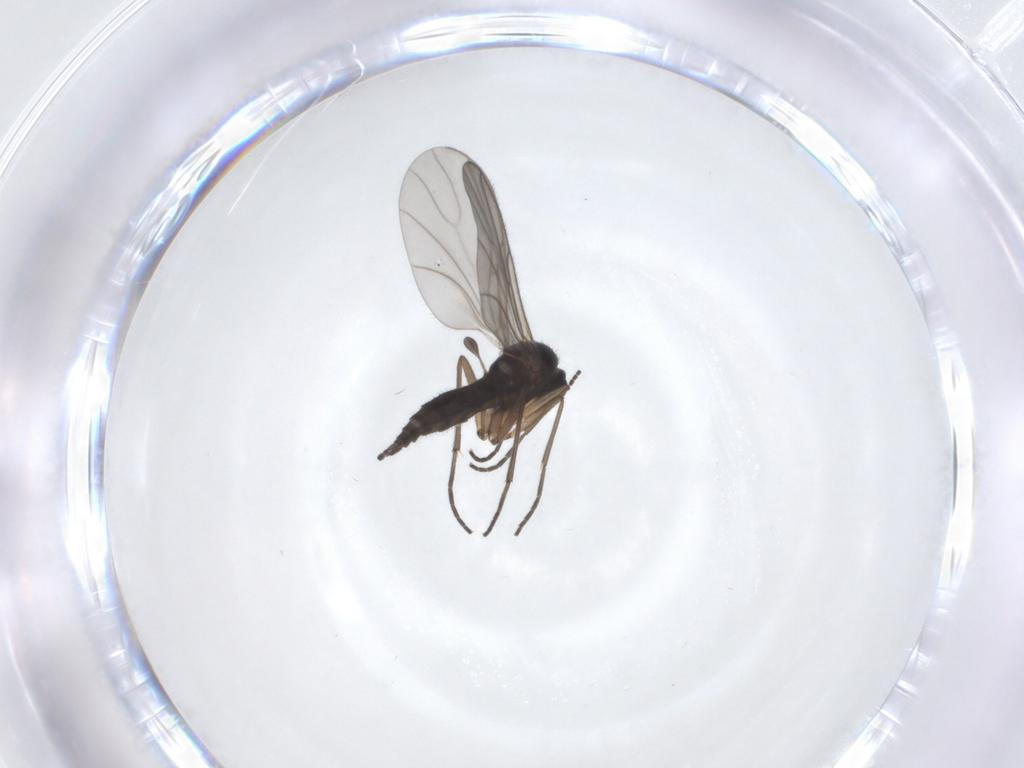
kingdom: Animalia
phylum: Arthropoda
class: Insecta
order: Diptera
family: Sciaridae
